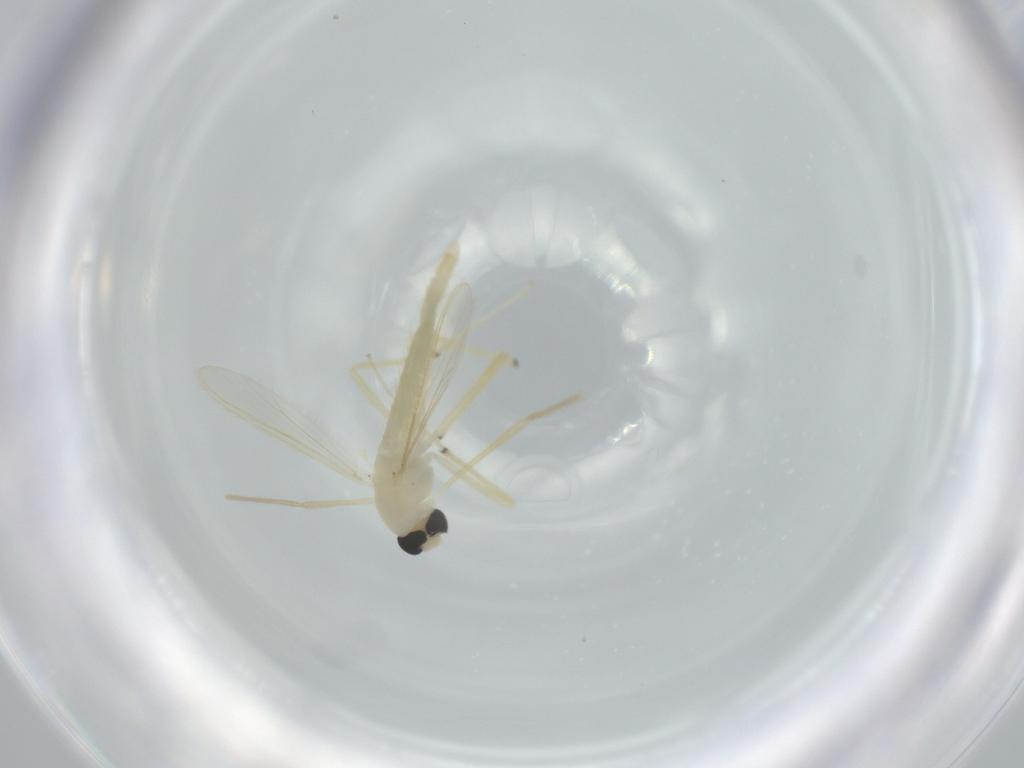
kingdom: Animalia
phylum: Arthropoda
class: Insecta
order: Diptera
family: Chironomidae
